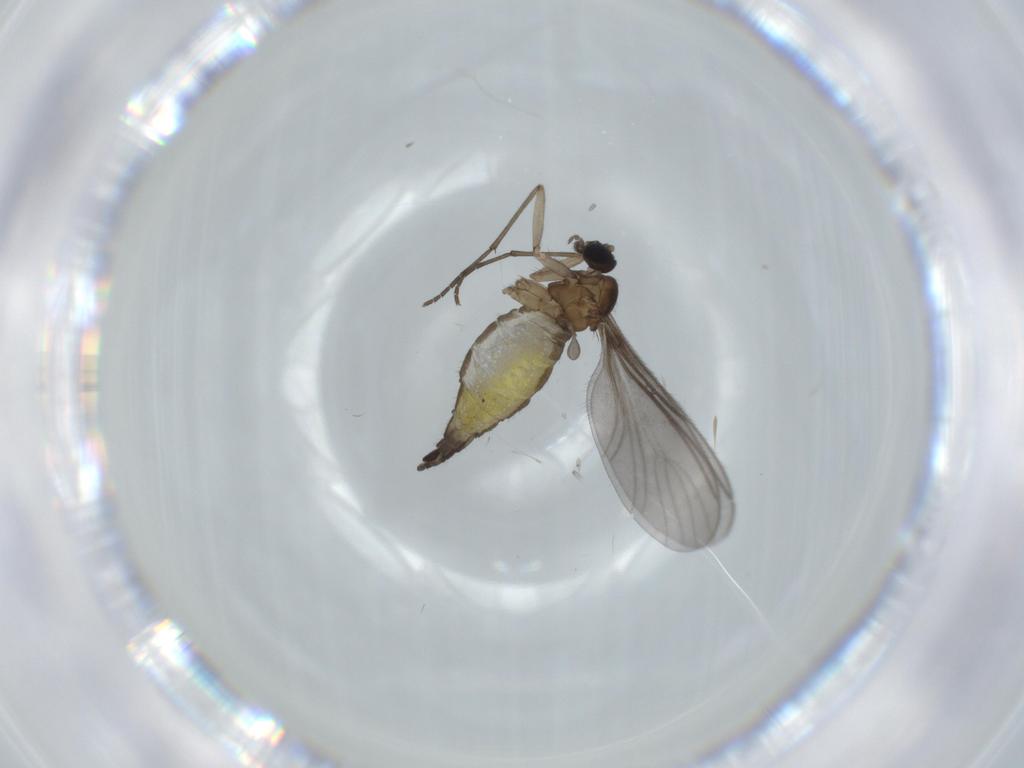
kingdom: Animalia
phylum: Arthropoda
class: Insecta
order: Diptera
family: Sciaridae
